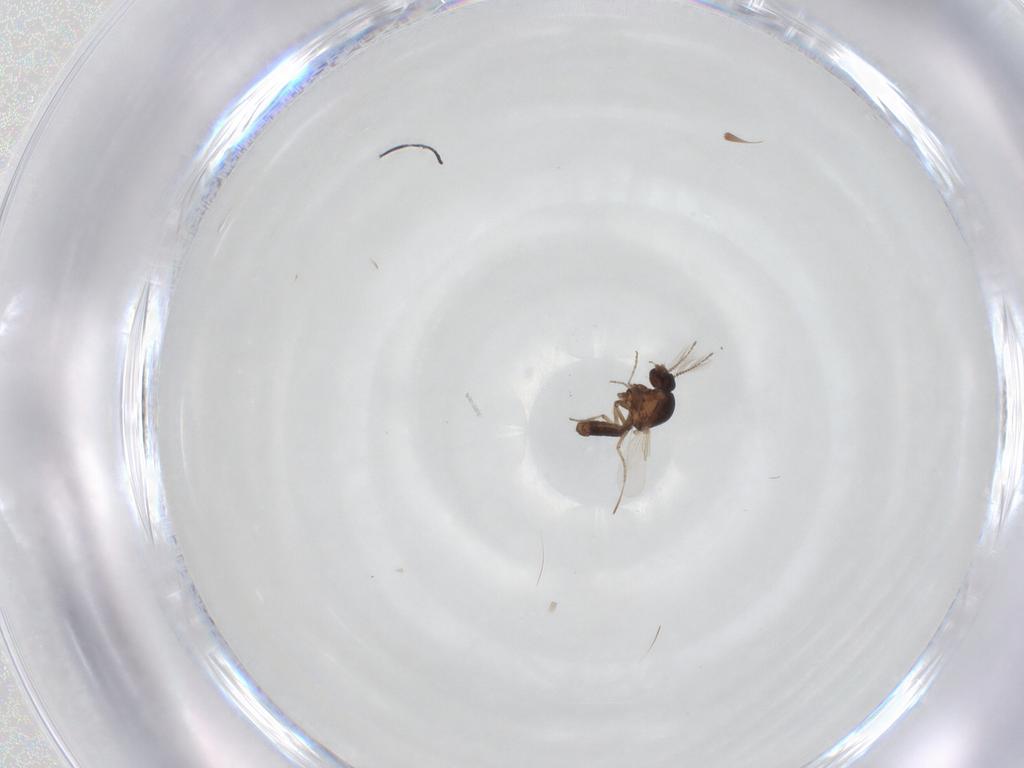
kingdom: Animalia
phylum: Arthropoda
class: Insecta
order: Diptera
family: Ceratopogonidae
